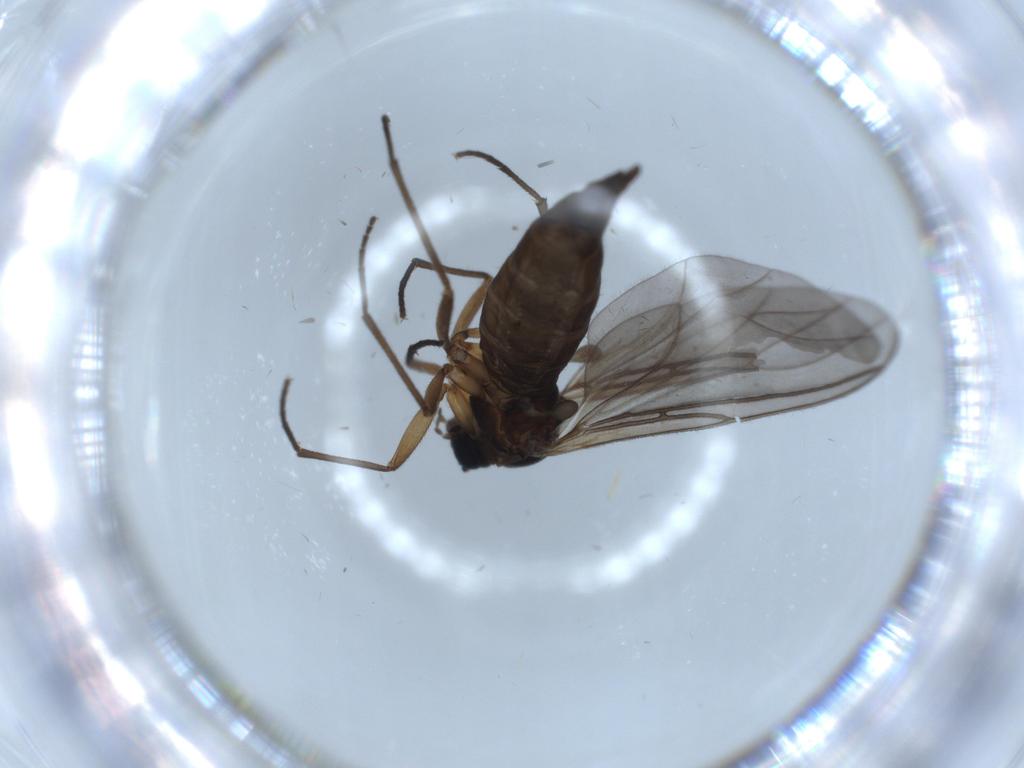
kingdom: Animalia
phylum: Arthropoda
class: Insecta
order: Diptera
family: Sciaridae
